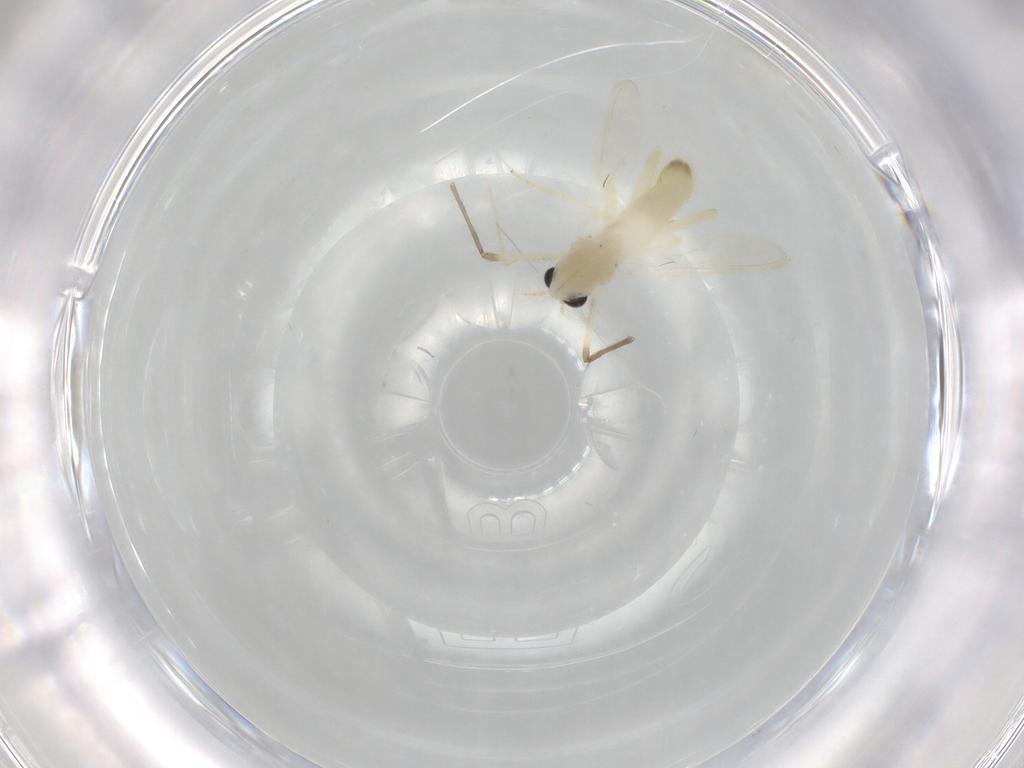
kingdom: Animalia
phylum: Arthropoda
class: Insecta
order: Diptera
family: Chironomidae
